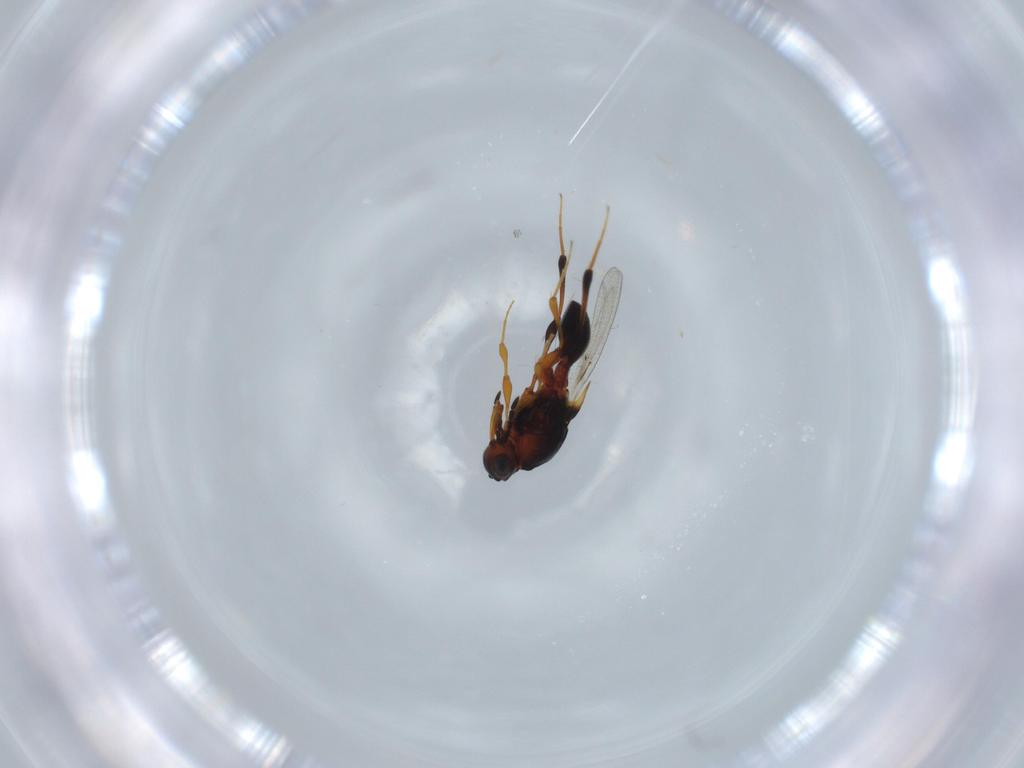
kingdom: Animalia
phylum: Arthropoda
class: Insecta
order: Hymenoptera
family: Platygastridae
